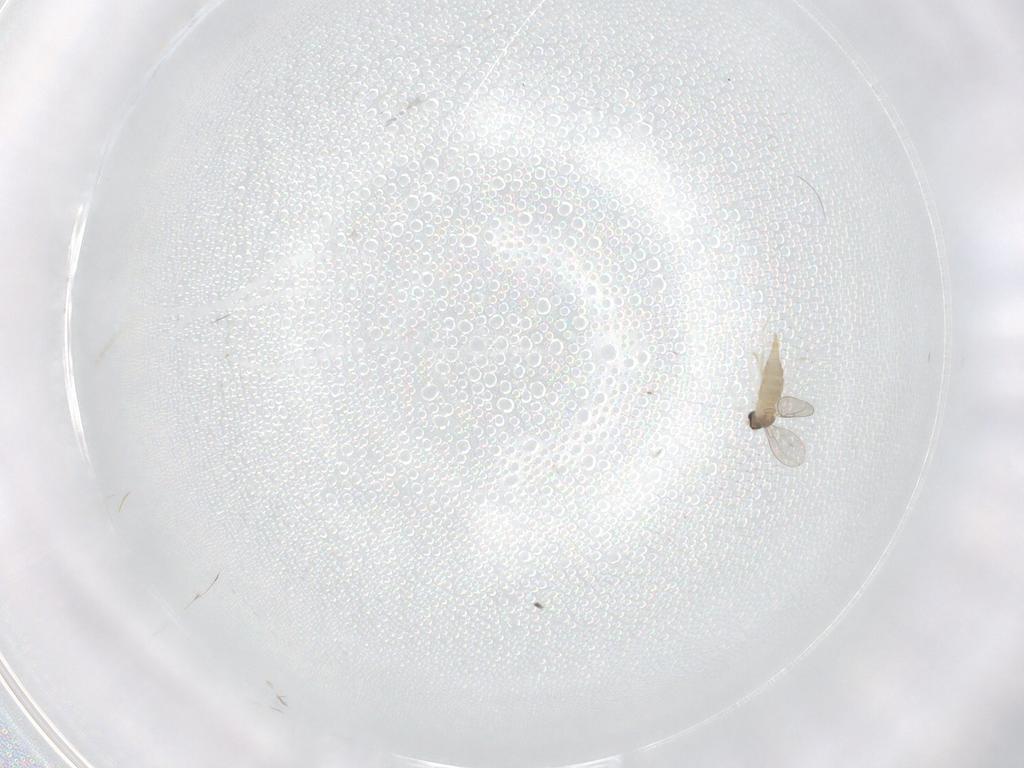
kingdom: Animalia
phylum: Arthropoda
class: Insecta
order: Diptera
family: Cecidomyiidae
